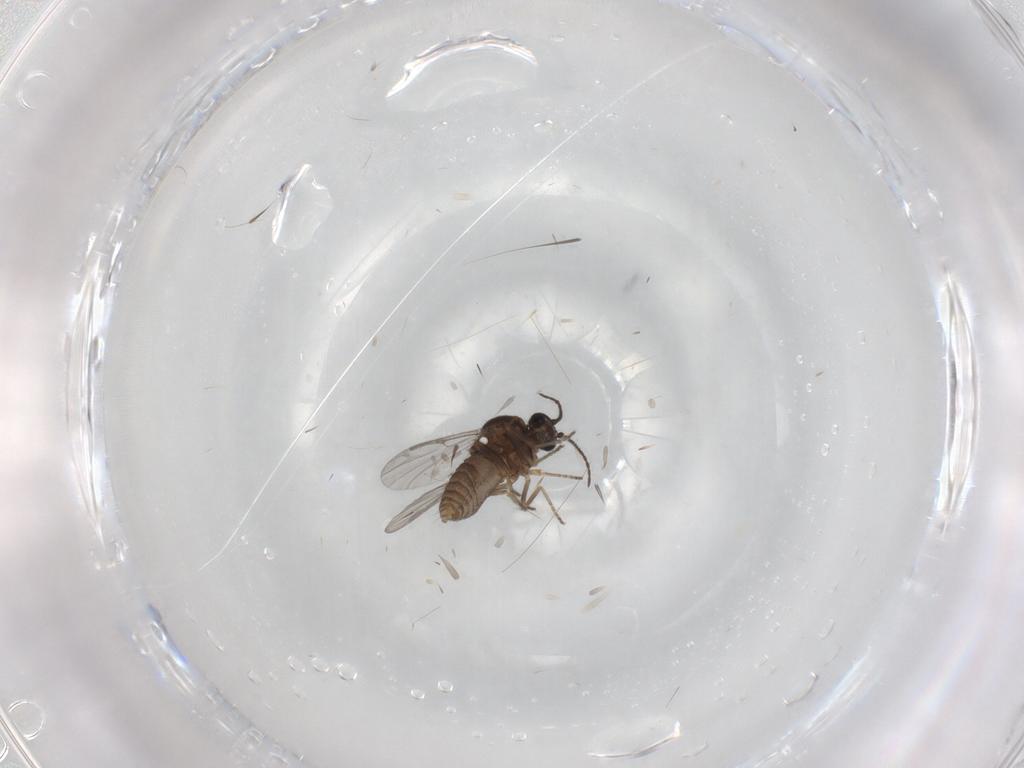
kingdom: Animalia
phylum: Arthropoda
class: Insecta
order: Diptera
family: Ceratopogonidae
